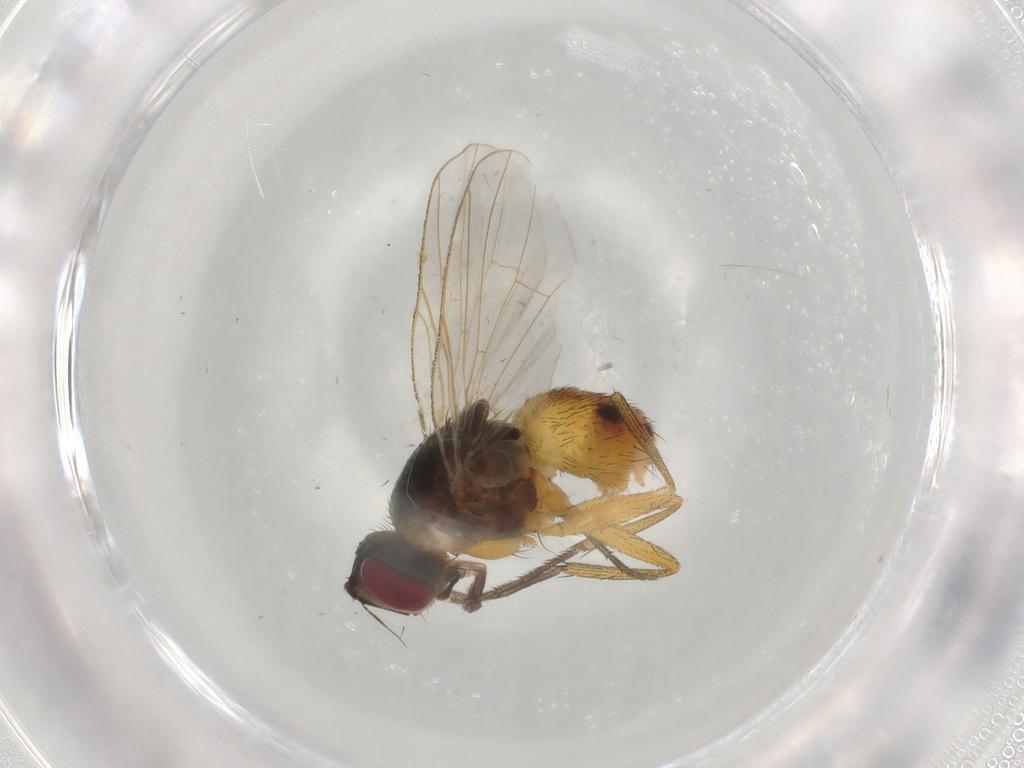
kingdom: Animalia
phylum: Arthropoda
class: Insecta
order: Diptera
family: Muscidae
